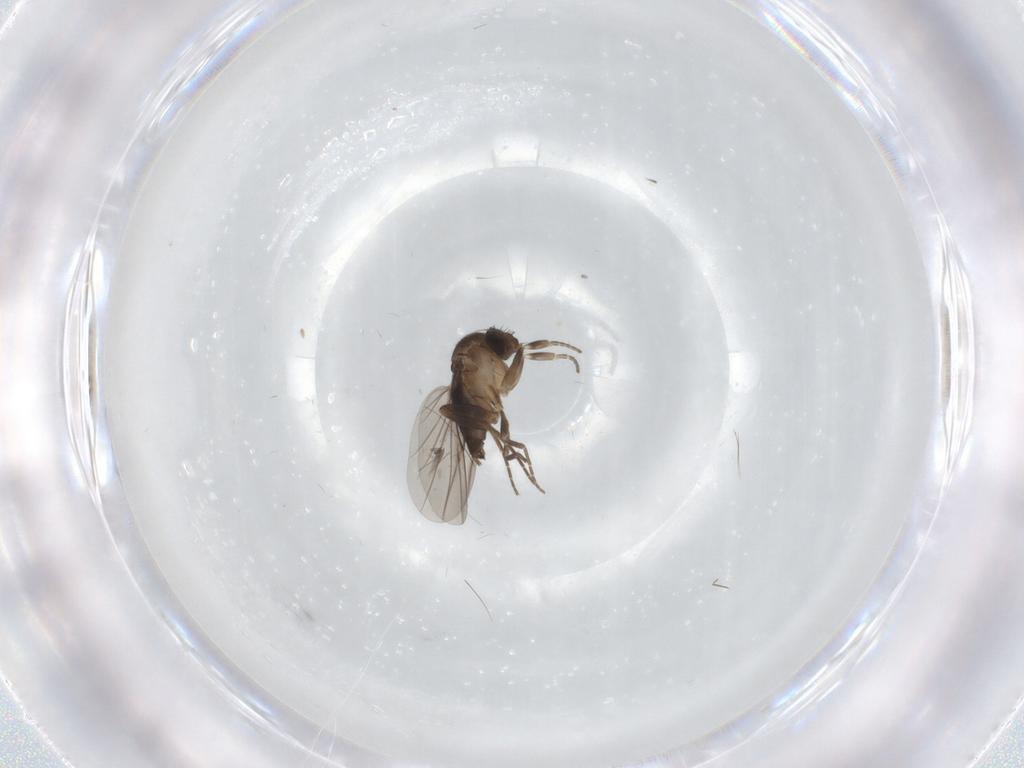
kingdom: Animalia
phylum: Arthropoda
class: Insecta
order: Diptera
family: Phoridae
